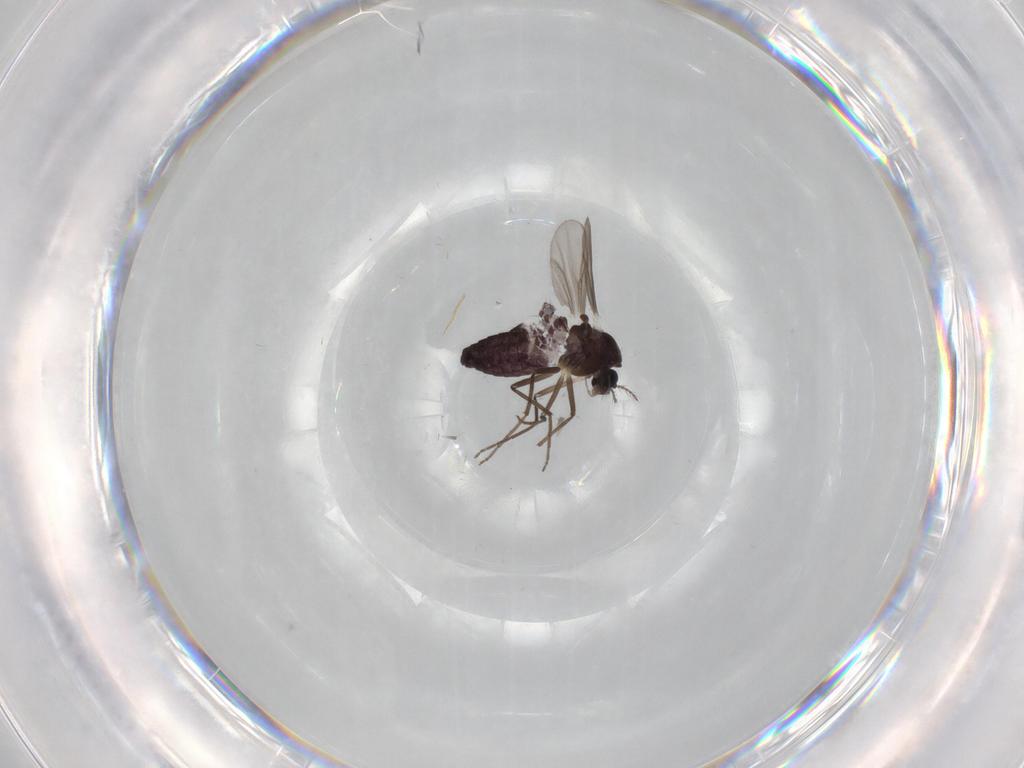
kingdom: Animalia
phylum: Arthropoda
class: Insecta
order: Diptera
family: Chironomidae
